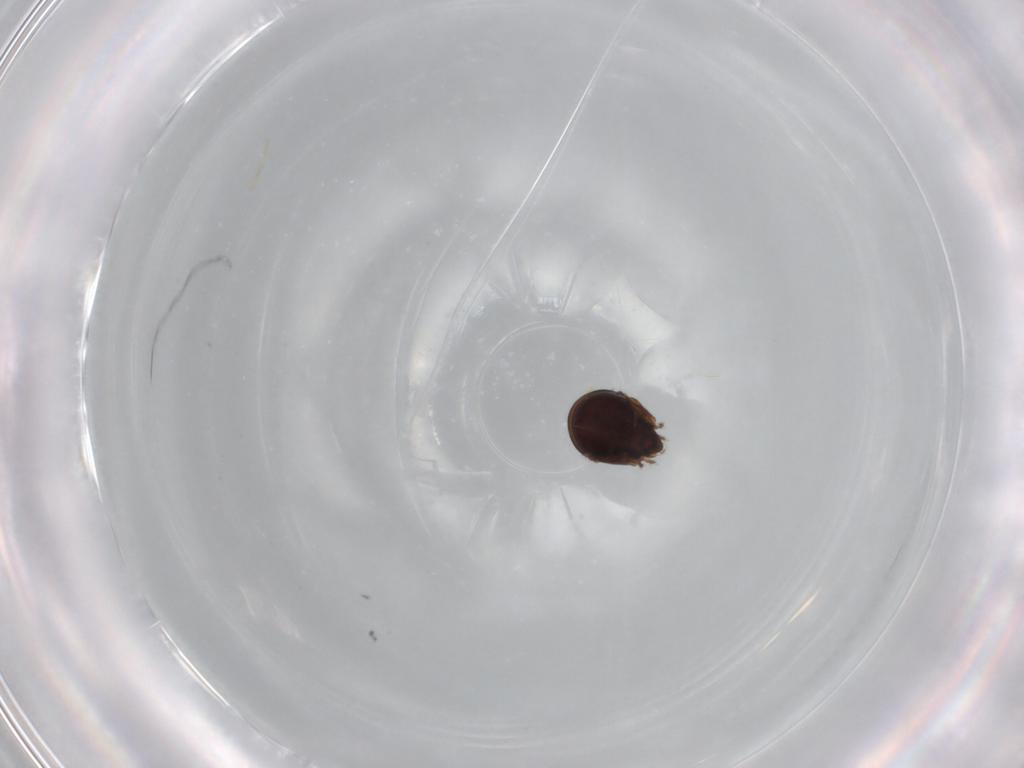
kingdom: Animalia
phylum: Arthropoda
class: Arachnida
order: Sarcoptiformes
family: Ceratozetidae
